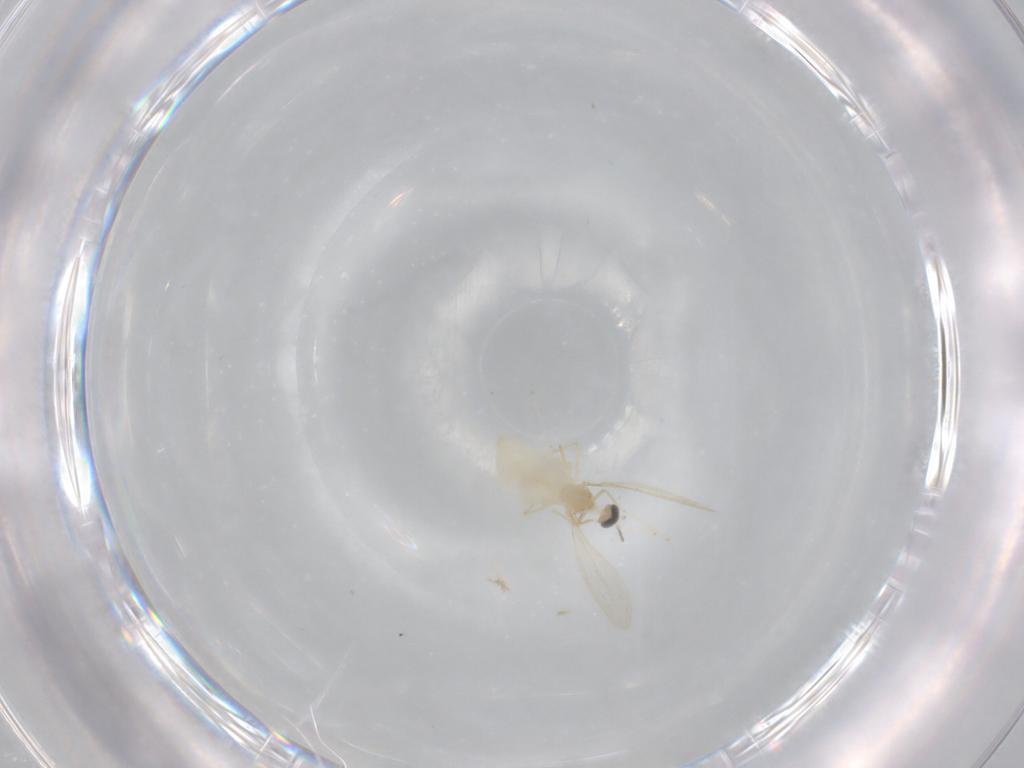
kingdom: Animalia
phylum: Arthropoda
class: Insecta
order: Diptera
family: Cecidomyiidae
